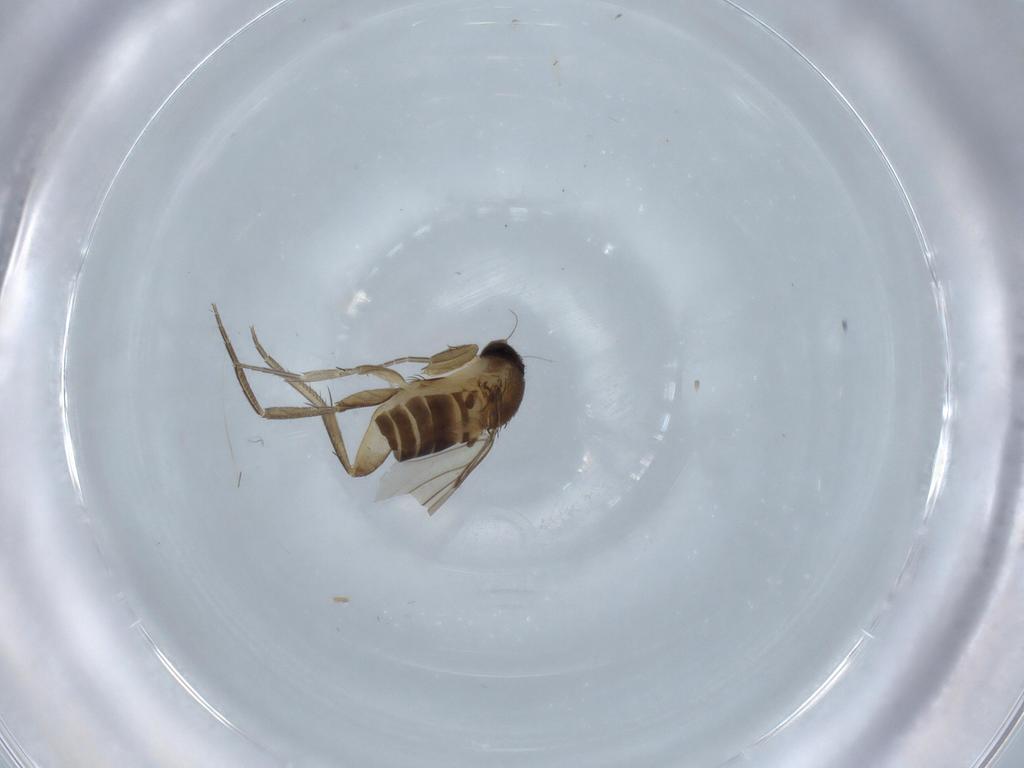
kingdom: Animalia
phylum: Arthropoda
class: Insecta
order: Diptera
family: Phoridae
